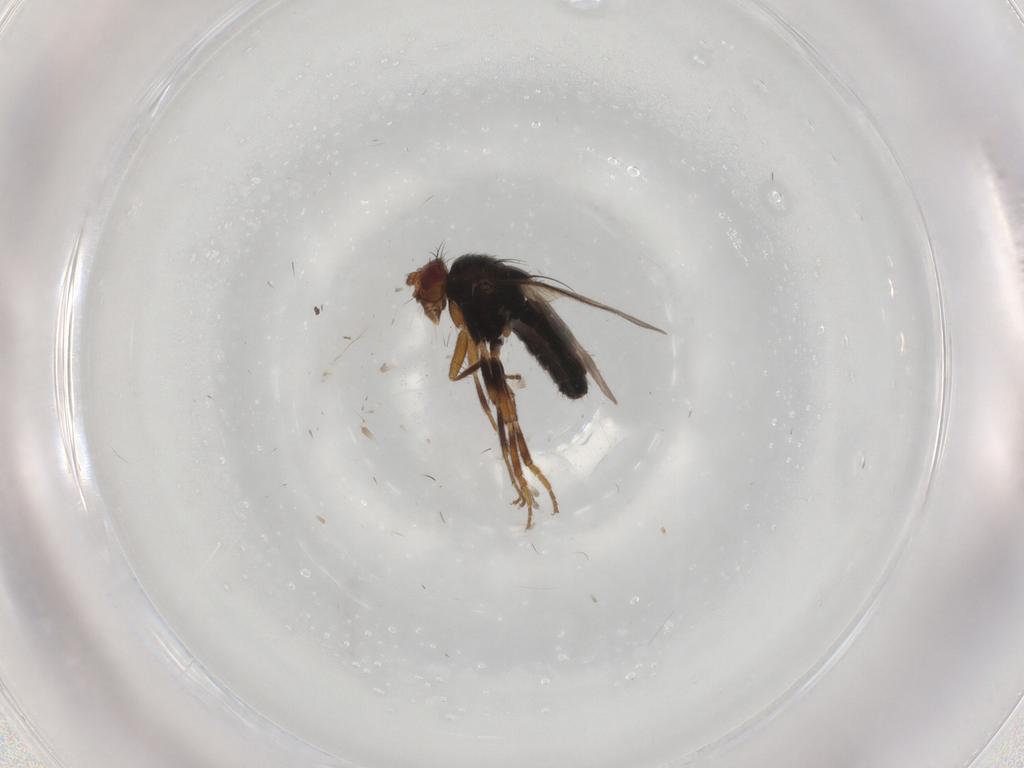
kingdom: Animalia
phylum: Arthropoda
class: Insecta
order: Diptera
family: Sphaeroceridae
